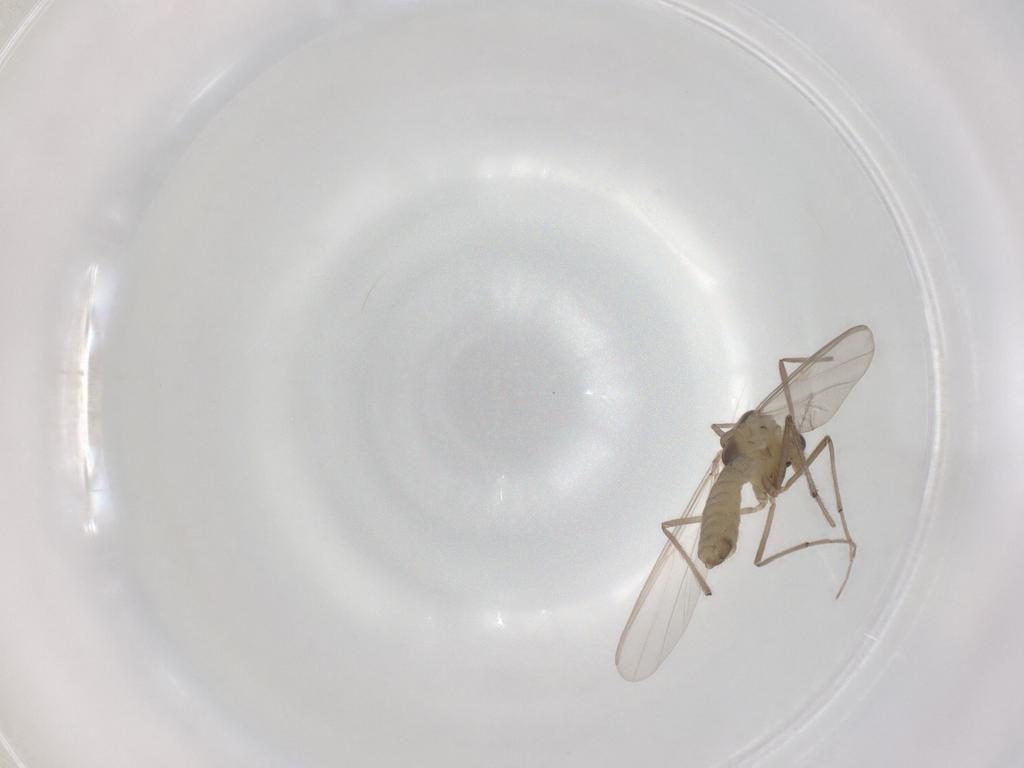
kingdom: Animalia
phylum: Arthropoda
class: Insecta
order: Diptera
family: Chironomidae
